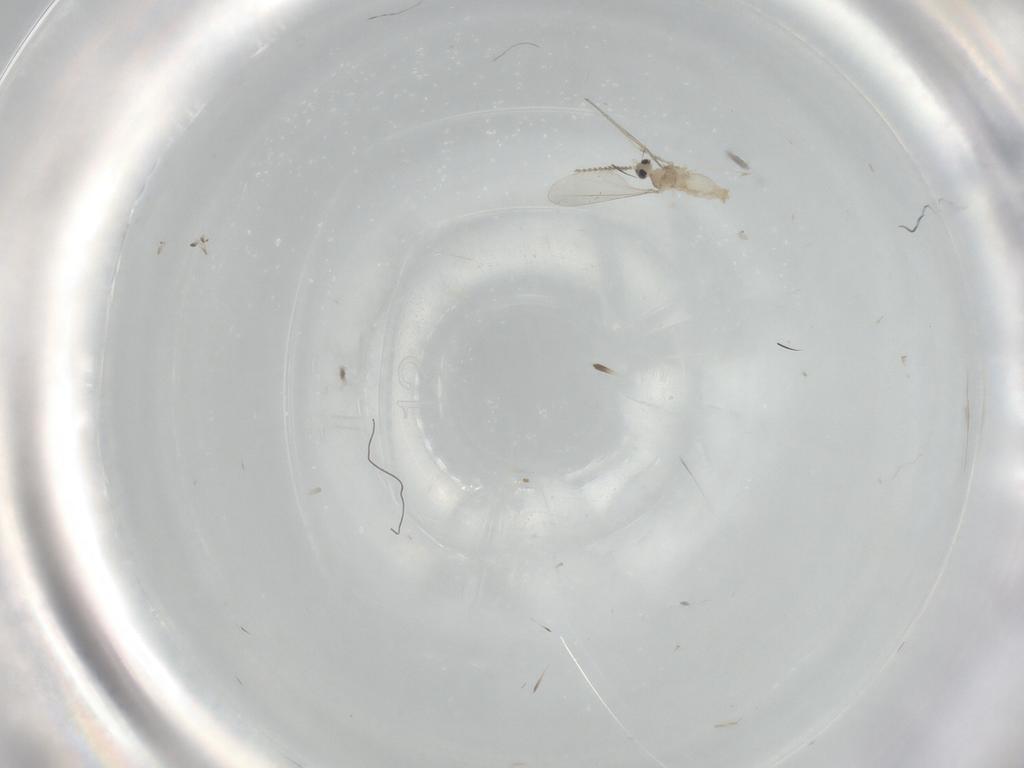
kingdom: Animalia
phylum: Arthropoda
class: Insecta
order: Diptera
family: Cecidomyiidae
